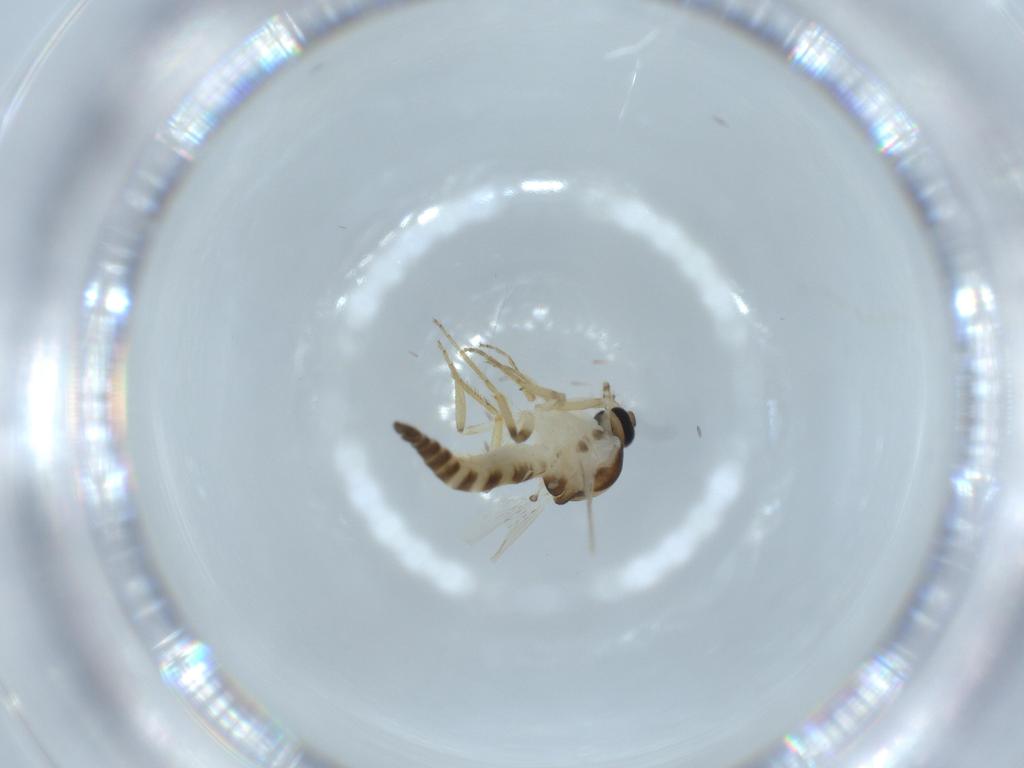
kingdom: Animalia
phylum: Arthropoda
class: Insecta
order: Diptera
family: Ceratopogonidae
